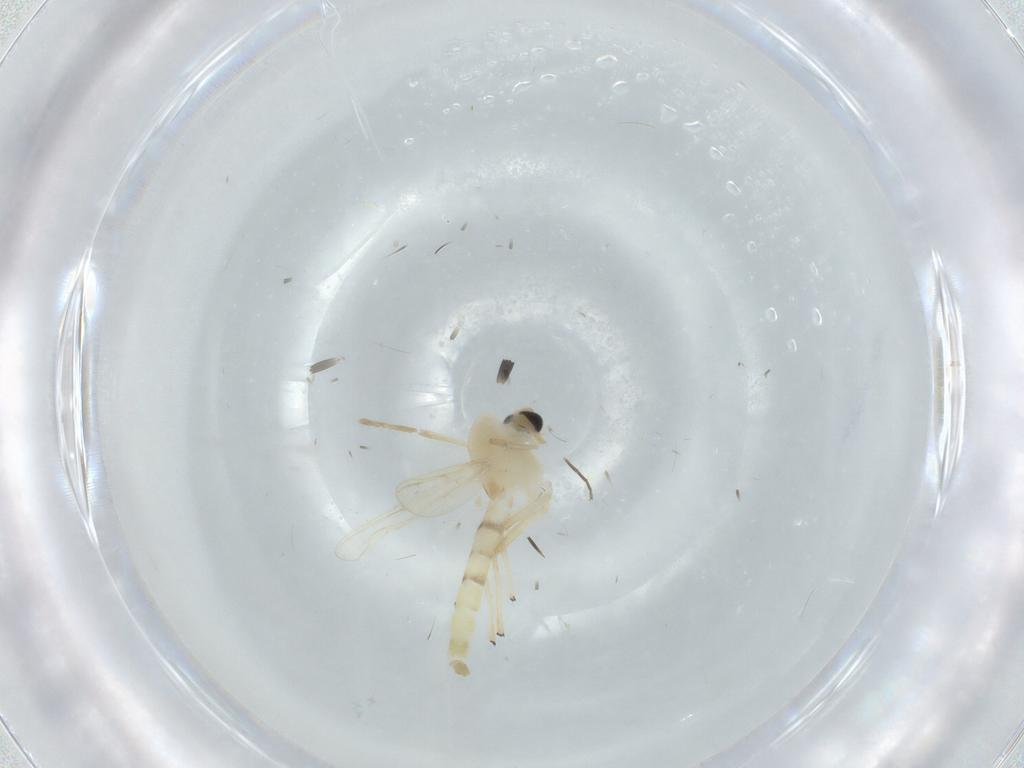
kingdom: Animalia
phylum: Arthropoda
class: Insecta
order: Diptera
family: Chironomidae
